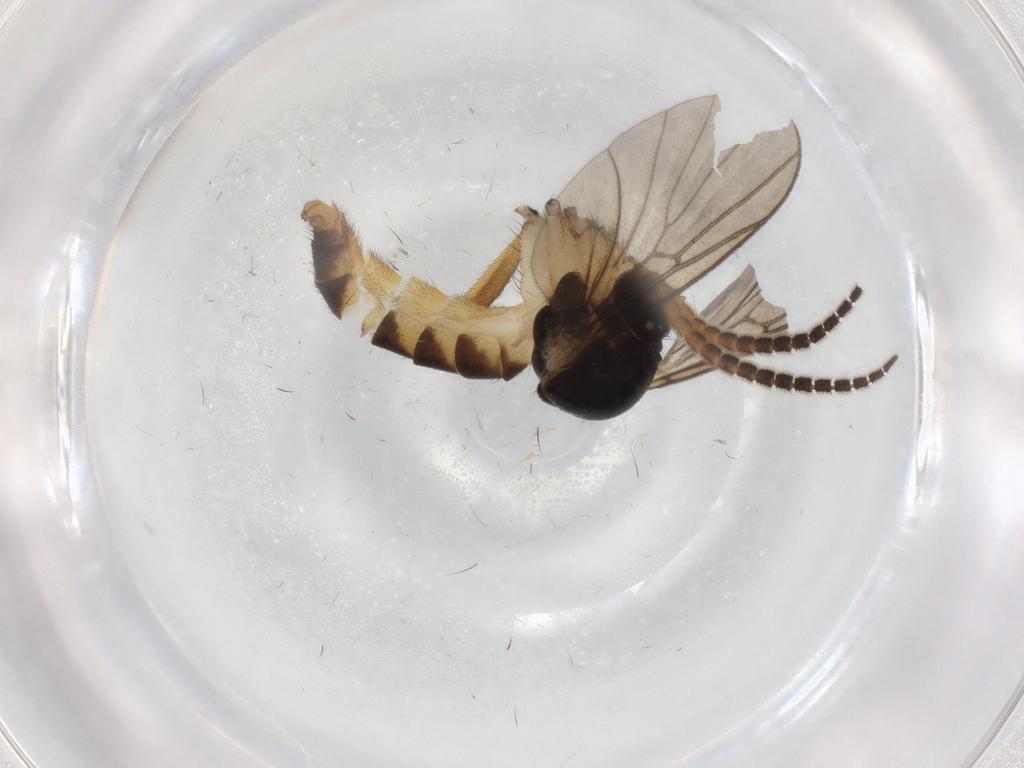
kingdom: Animalia
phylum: Arthropoda
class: Insecta
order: Diptera
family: Mycetophilidae
